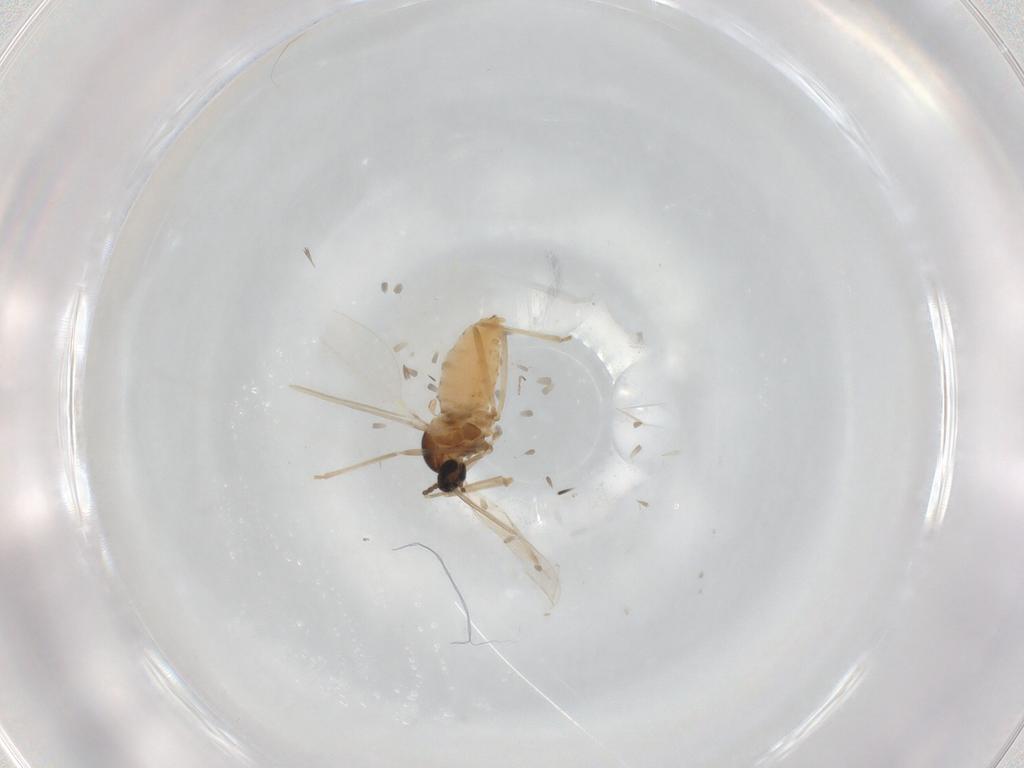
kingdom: Animalia
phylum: Arthropoda
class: Insecta
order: Diptera
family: Cecidomyiidae
